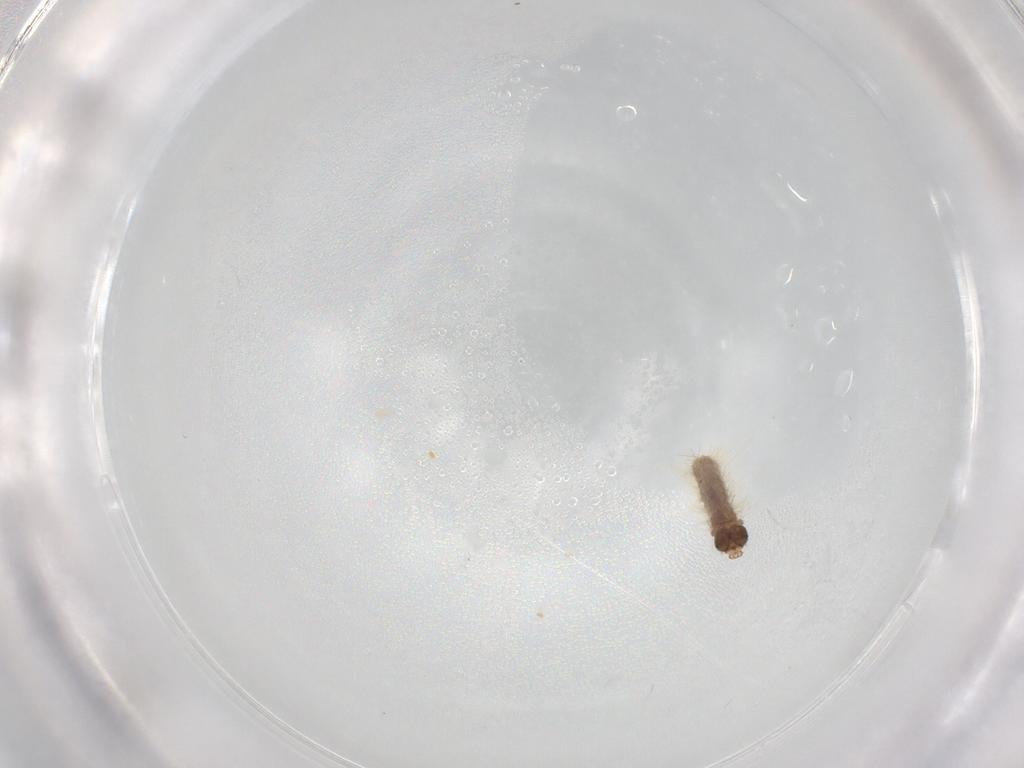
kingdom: Animalia
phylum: Arthropoda
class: Insecta
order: Lepidoptera
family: Noctuidae
